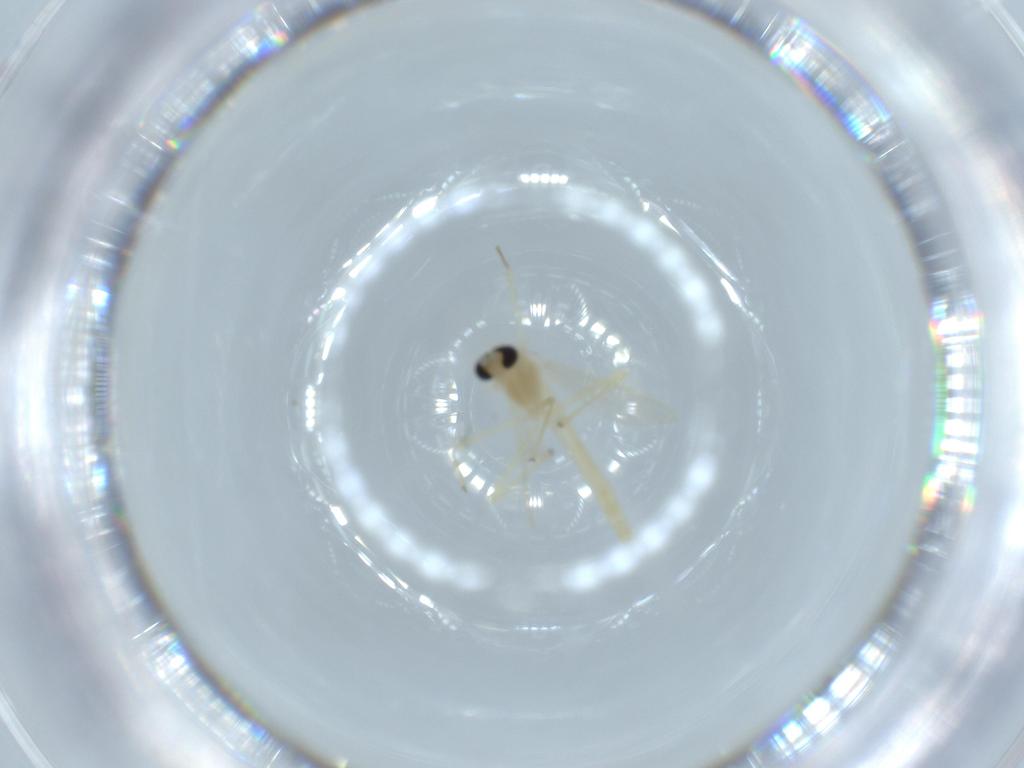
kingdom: Animalia
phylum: Arthropoda
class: Insecta
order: Diptera
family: Chironomidae
